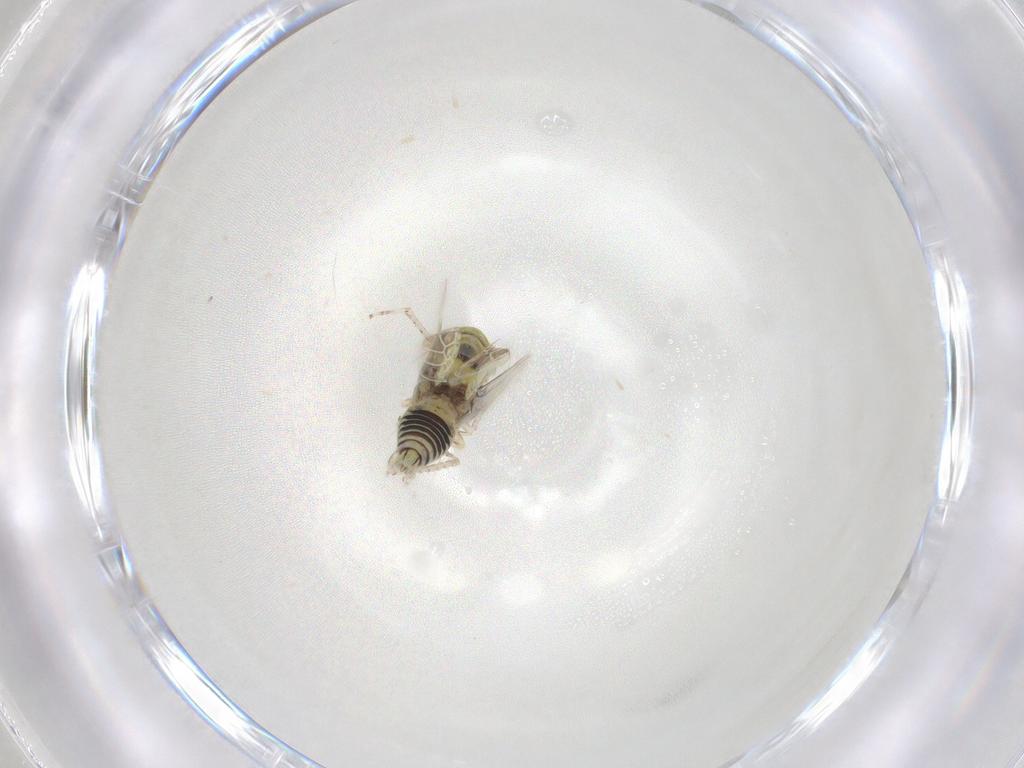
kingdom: Animalia
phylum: Arthropoda
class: Insecta
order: Hemiptera
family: Cicadellidae
